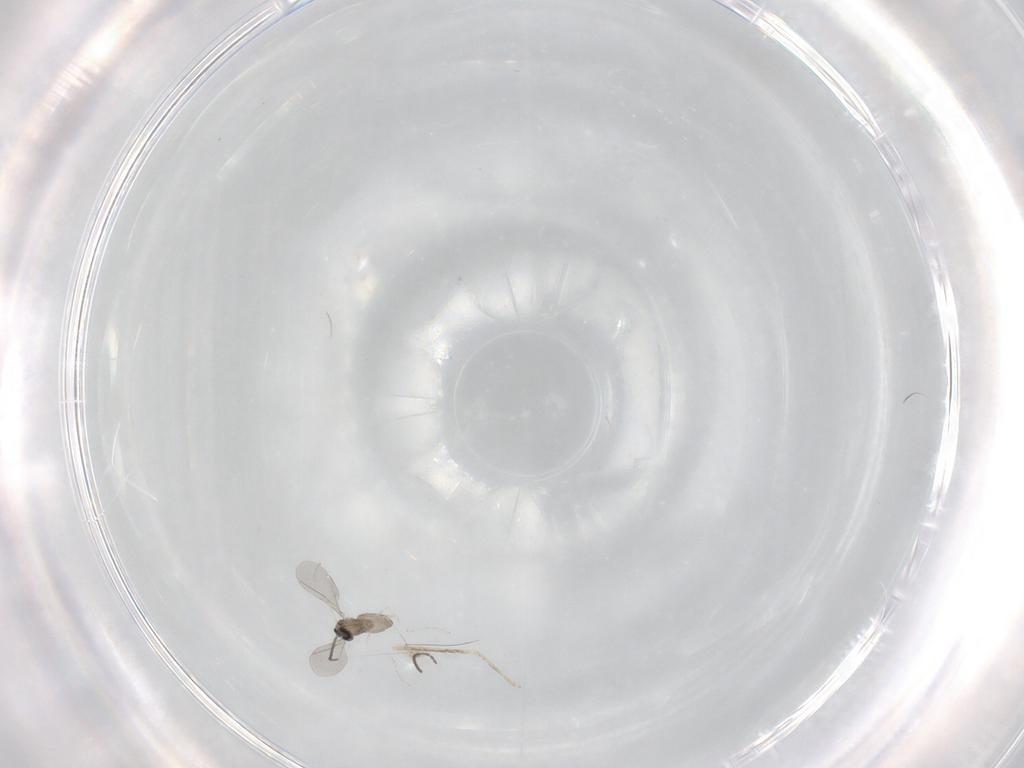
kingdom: Animalia
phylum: Arthropoda
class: Insecta
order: Diptera
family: Cecidomyiidae
